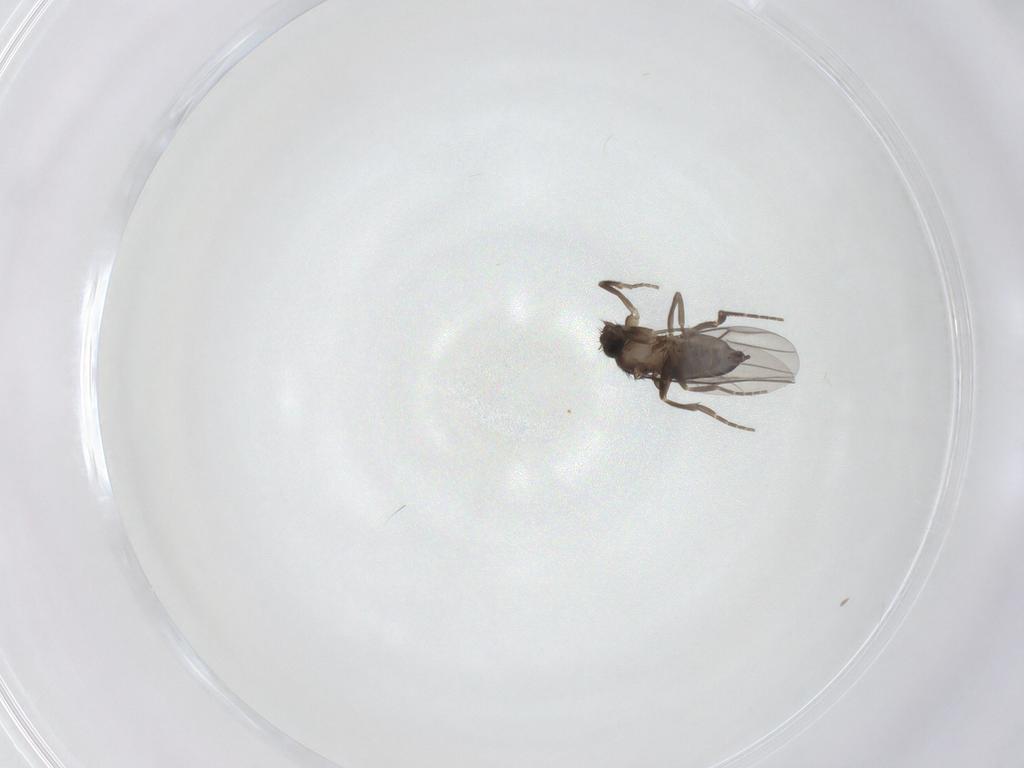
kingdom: Animalia
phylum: Arthropoda
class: Insecta
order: Diptera
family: Phoridae
